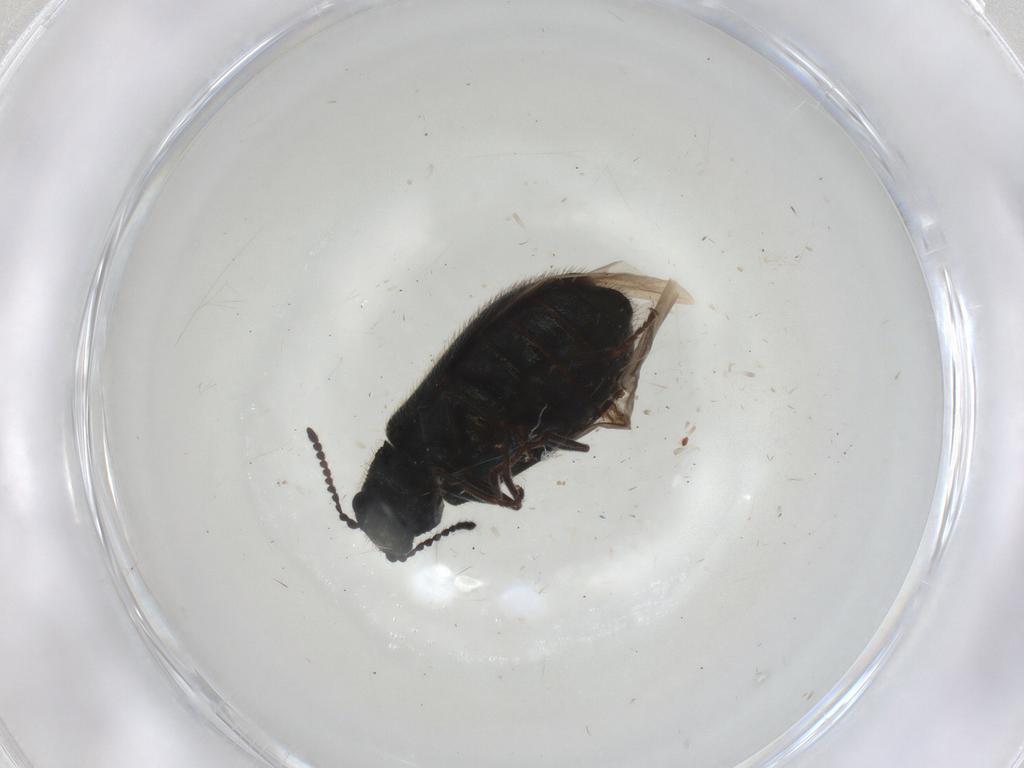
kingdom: Animalia
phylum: Arthropoda
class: Insecta
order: Coleoptera
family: Melyridae
